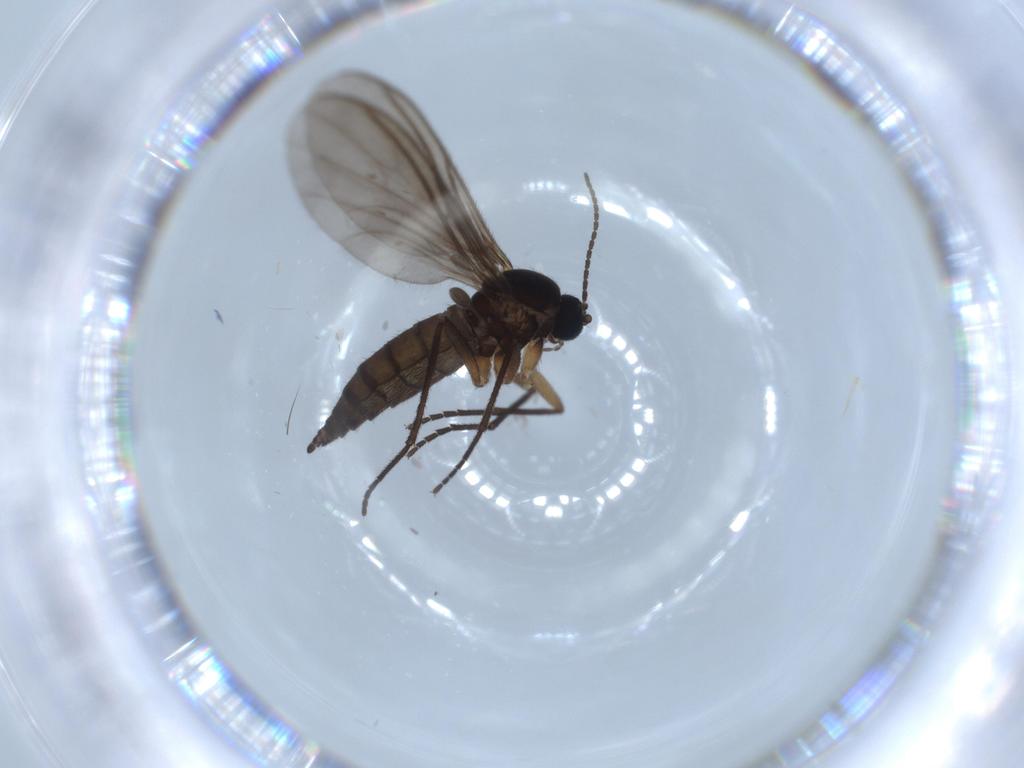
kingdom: Animalia
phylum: Arthropoda
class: Insecta
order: Diptera
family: Sciaridae
